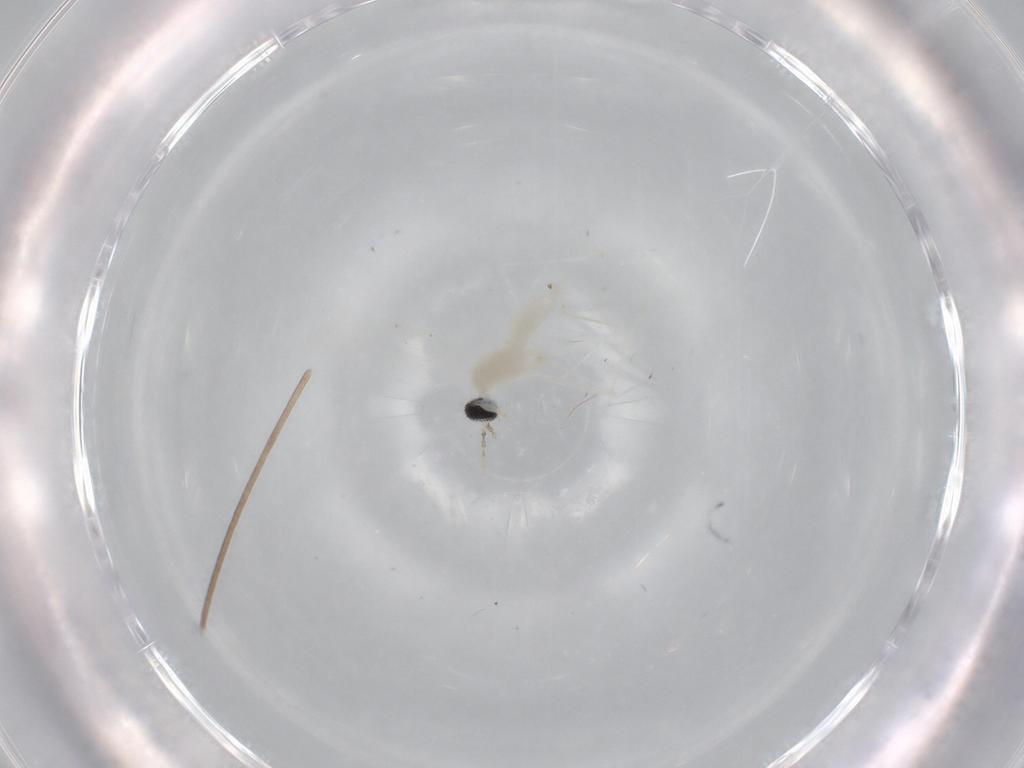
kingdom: Animalia
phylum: Arthropoda
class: Insecta
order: Diptera
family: Cecidomyiidae
